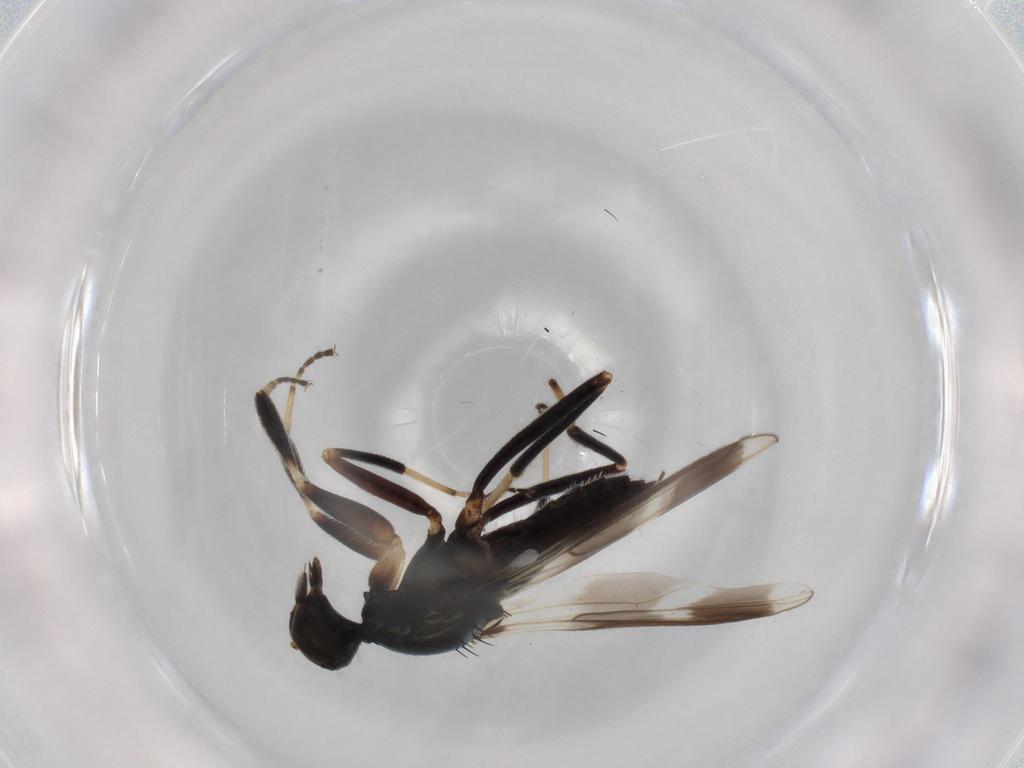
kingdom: Animalia
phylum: Arthropoda
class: Insecta
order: Diptera
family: Hybotidae
